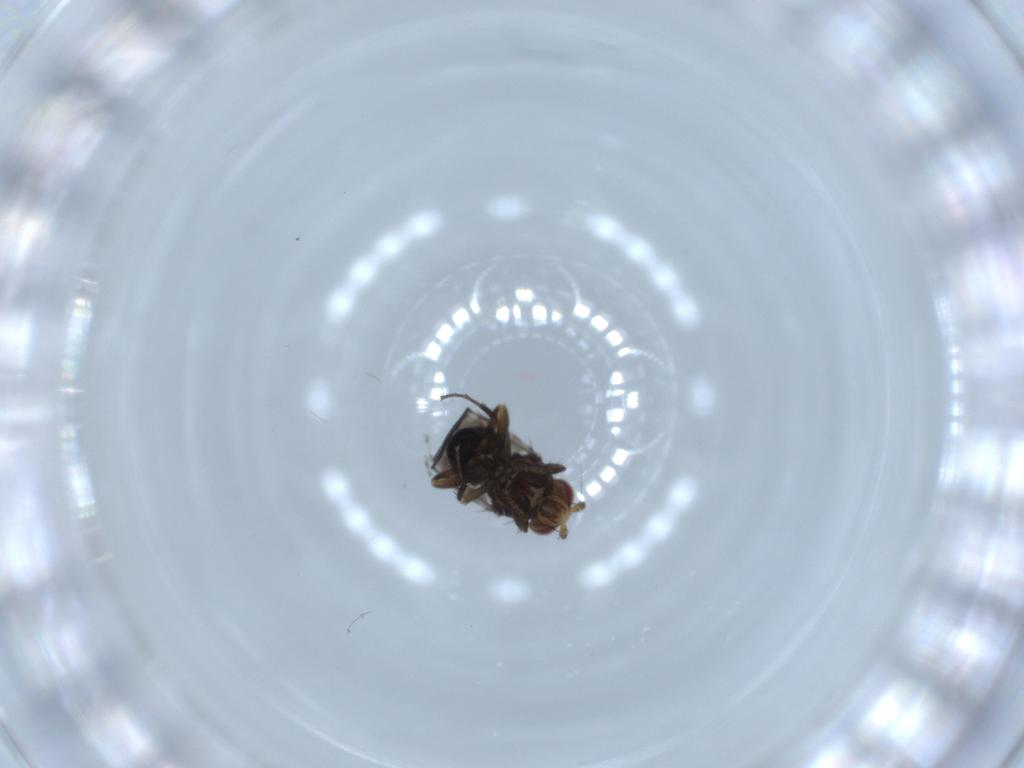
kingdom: Animalia
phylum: Arthropoda
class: Insecta
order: Diptera
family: Sphaeroceridae
